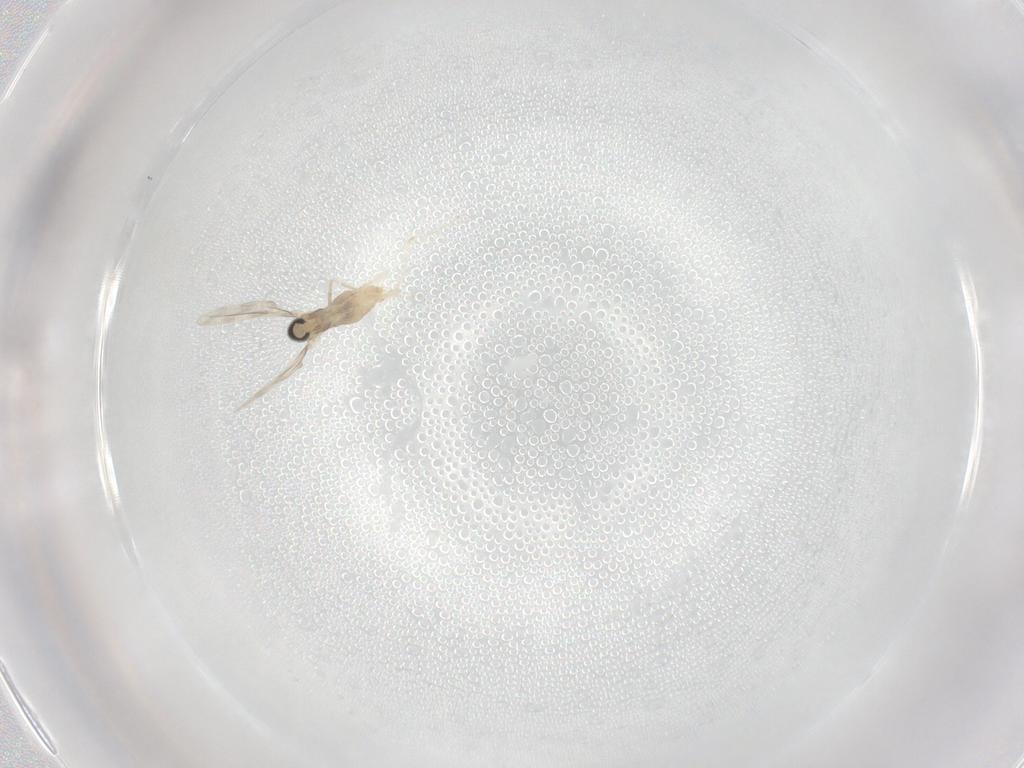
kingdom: Animalia
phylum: Arthropoda
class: Insecta
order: Diptera
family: Cecidomyiidae
